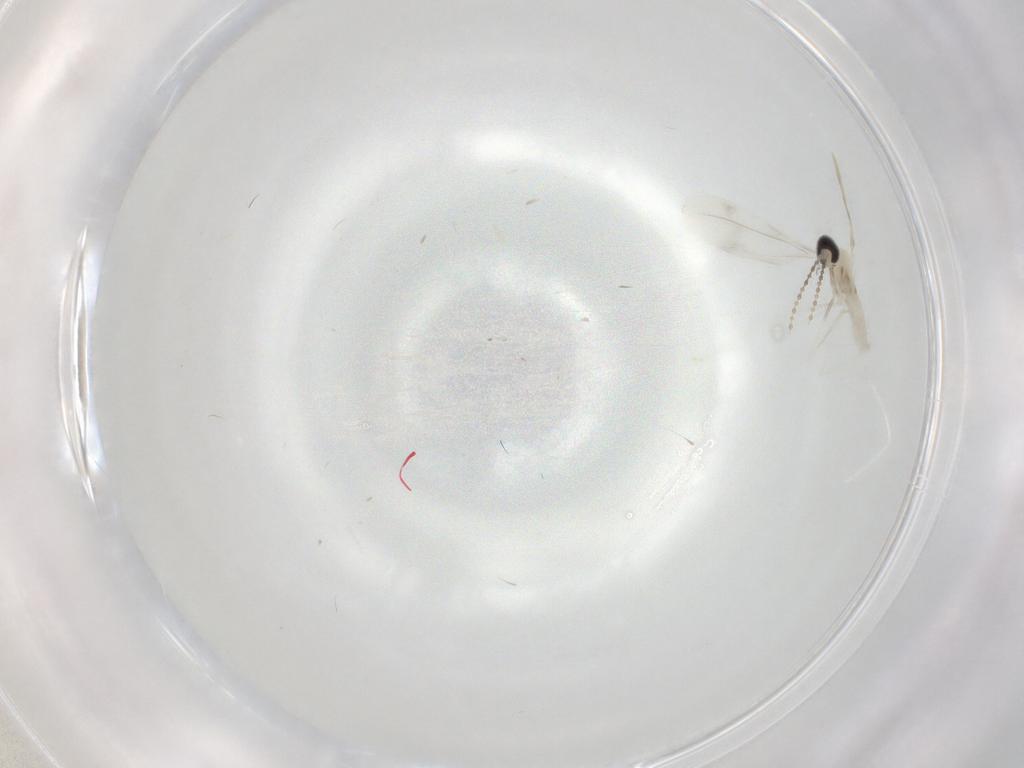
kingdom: Animalia
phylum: Arthropoda
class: Insecta
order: Diptera
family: Cecidomyiidae
